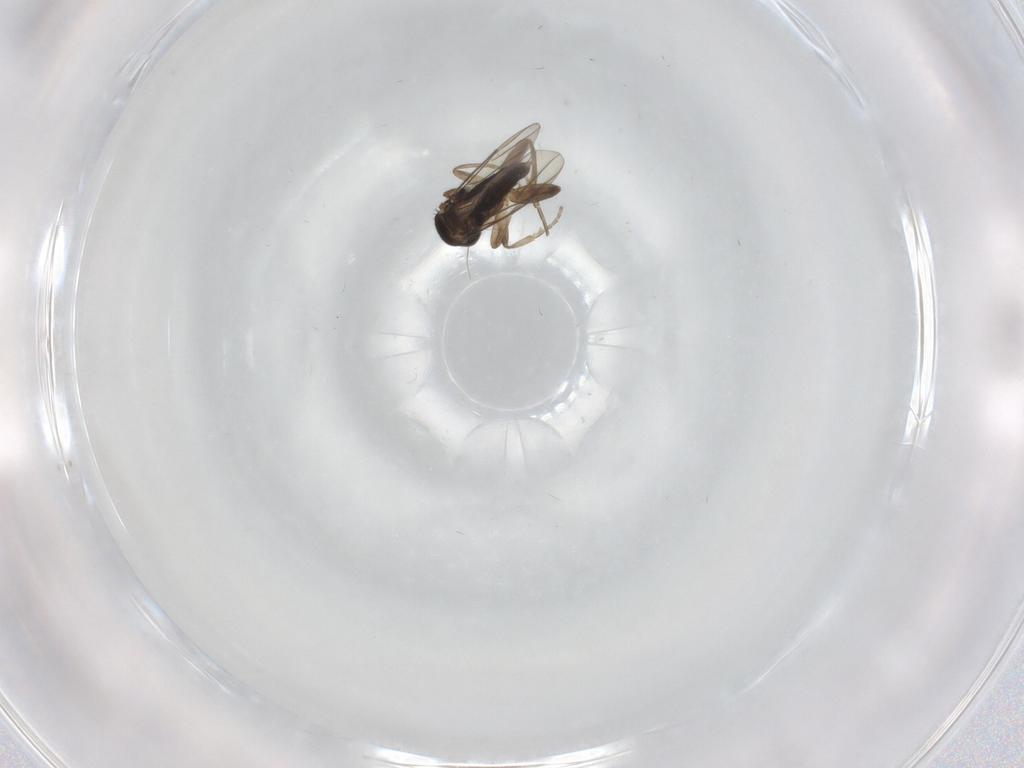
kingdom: Animalia
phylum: Arthropoda
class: Insecta
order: Diptera
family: Phoridae
